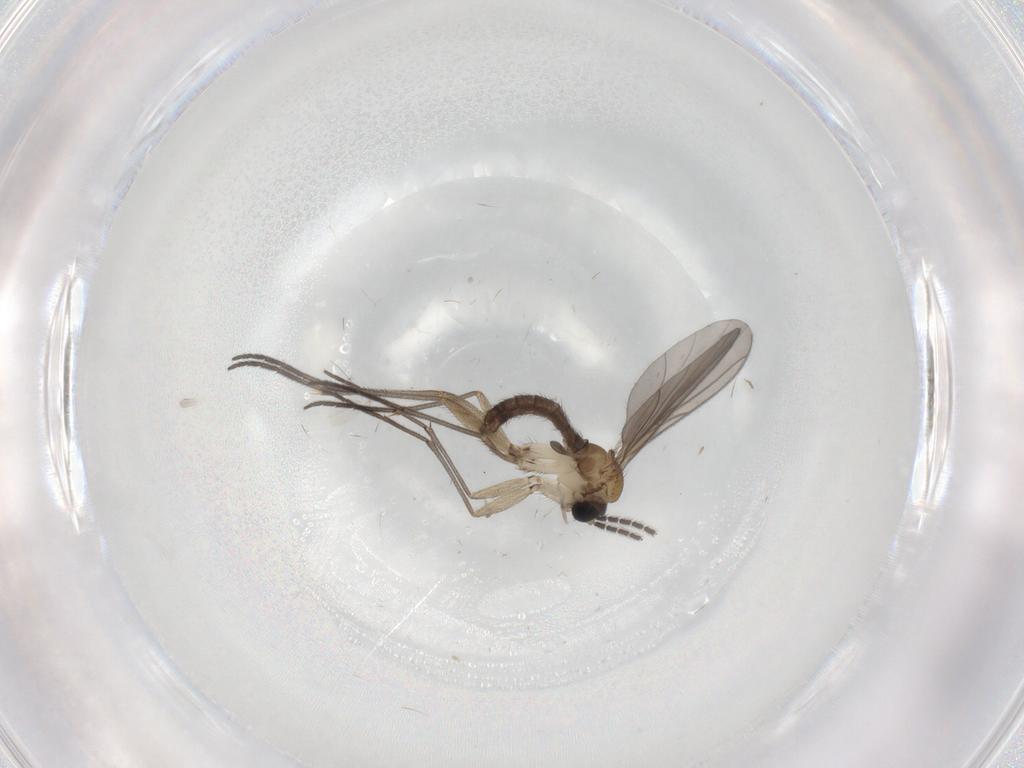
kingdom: Animalia
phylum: Arthropoda
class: Insecta
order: Diptera
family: Chironomidae
